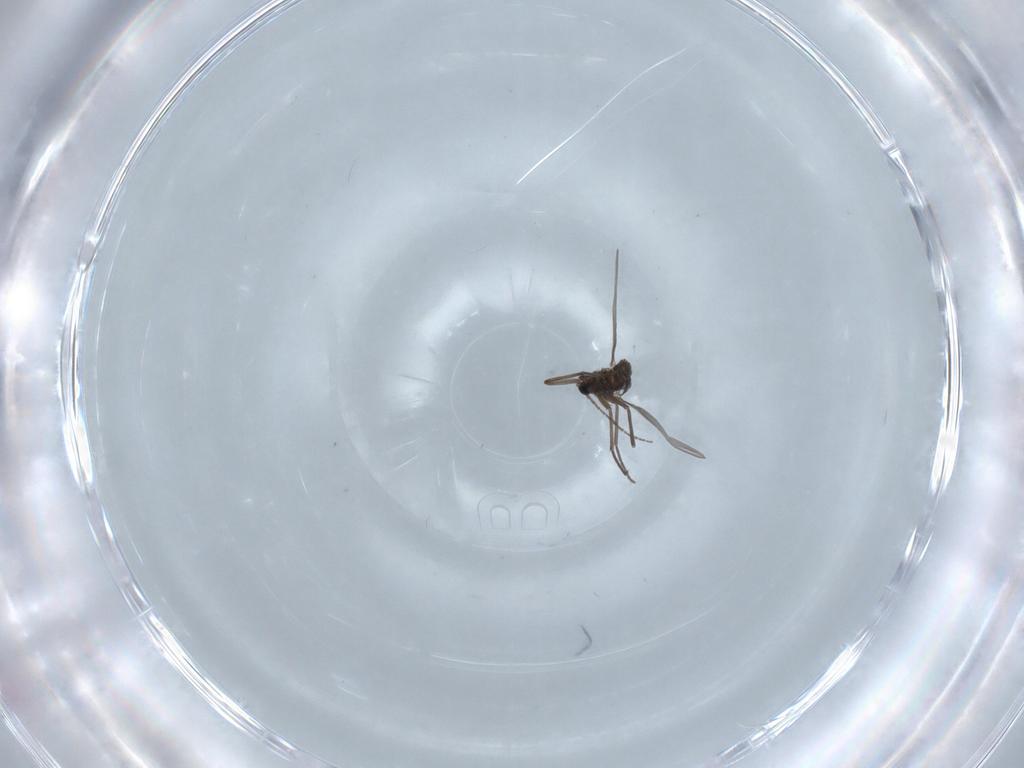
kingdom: Animalia
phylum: Arthropoda
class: Insecta
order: Diptera
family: Sciaridae
